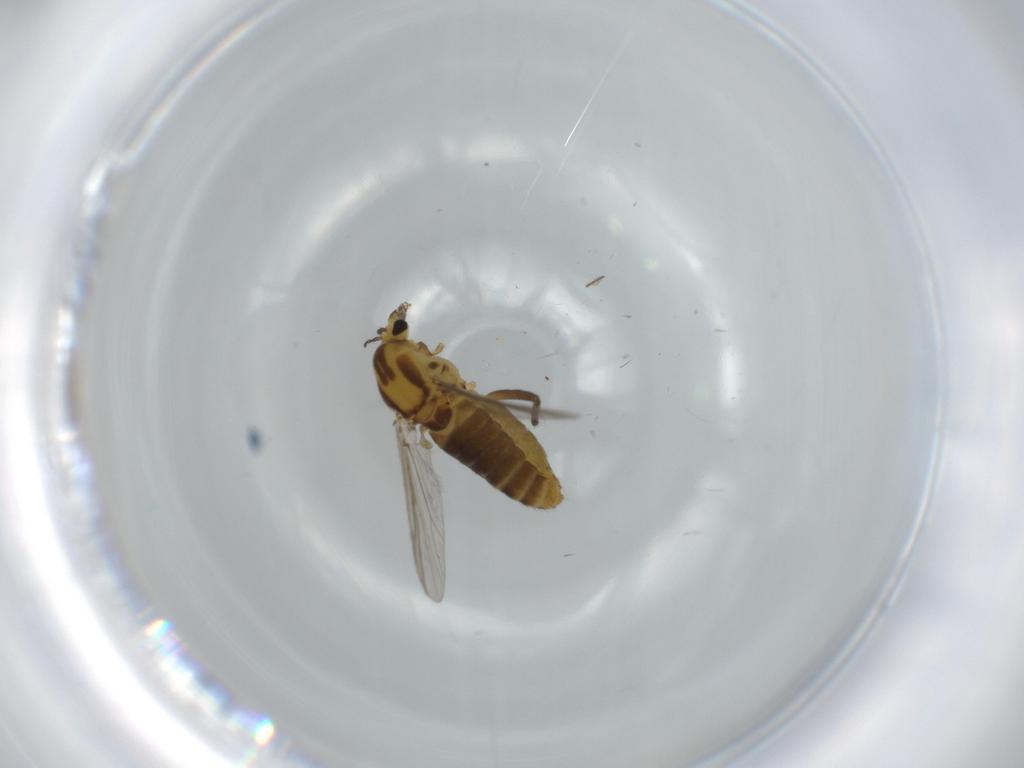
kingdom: Animalia
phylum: Arthropoda
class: Insecta
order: Diptera
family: Chironomidae
